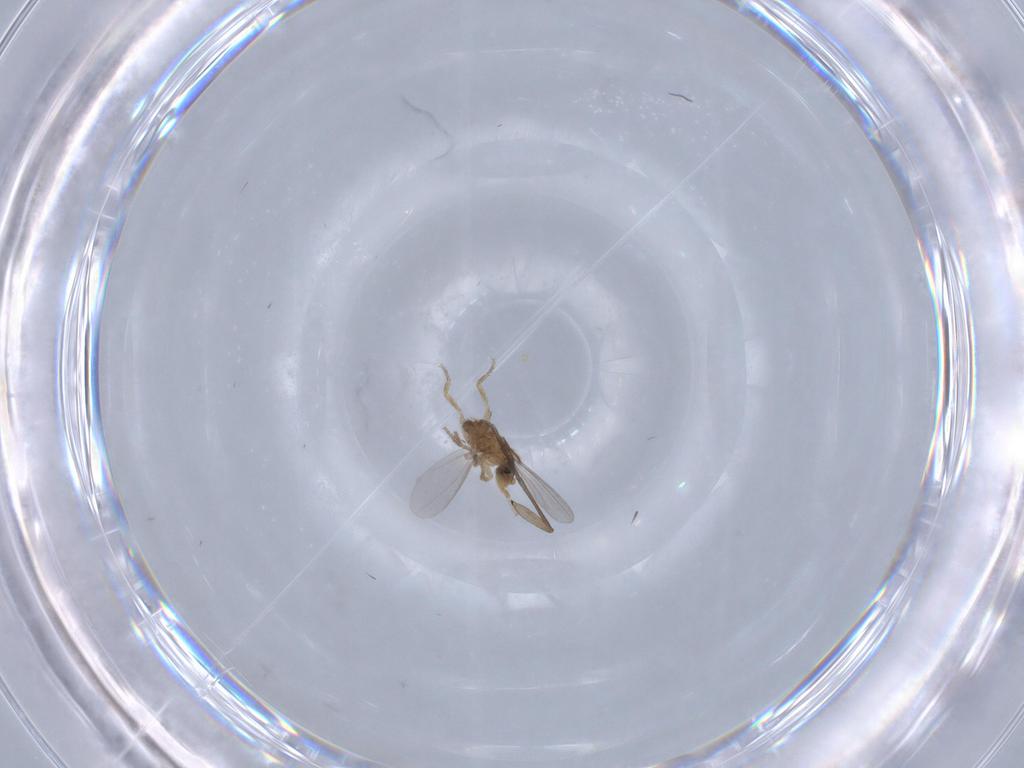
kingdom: Animalia
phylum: Arthropoda
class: Insecta
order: Diptera
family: Phoridae
